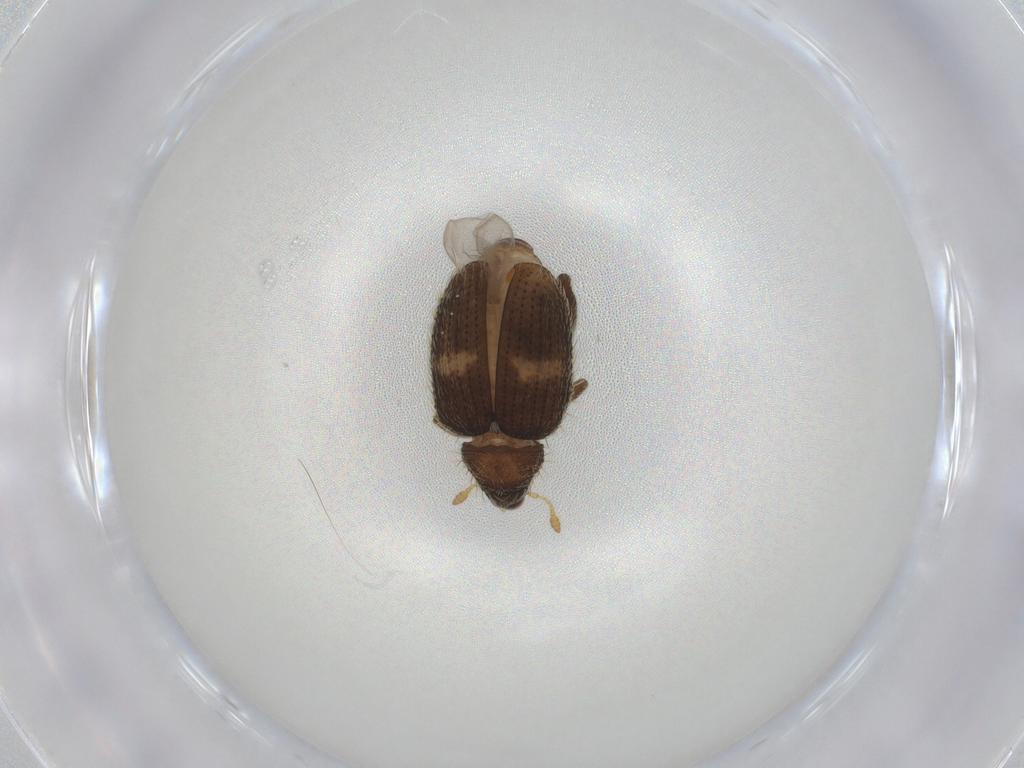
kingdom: Animalia
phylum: Arthropoda
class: Insecta
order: Coleoptera
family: Curculionidae
